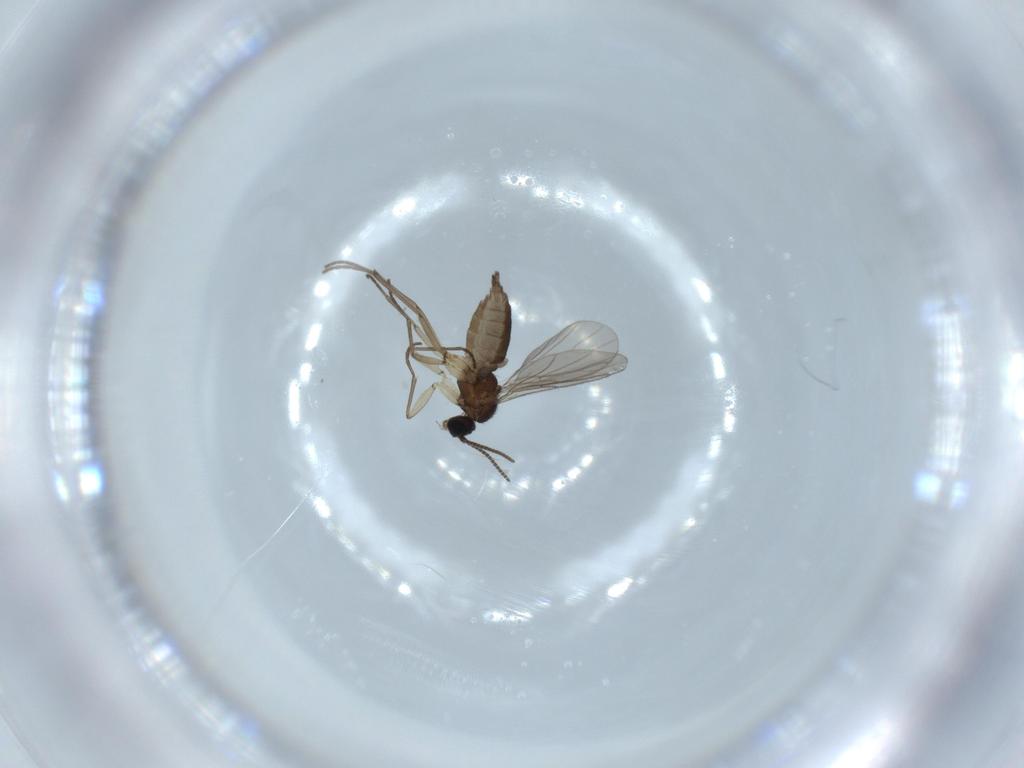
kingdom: Animalia
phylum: Arthropoda
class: Insecta
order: Diptera
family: Sciaridae
